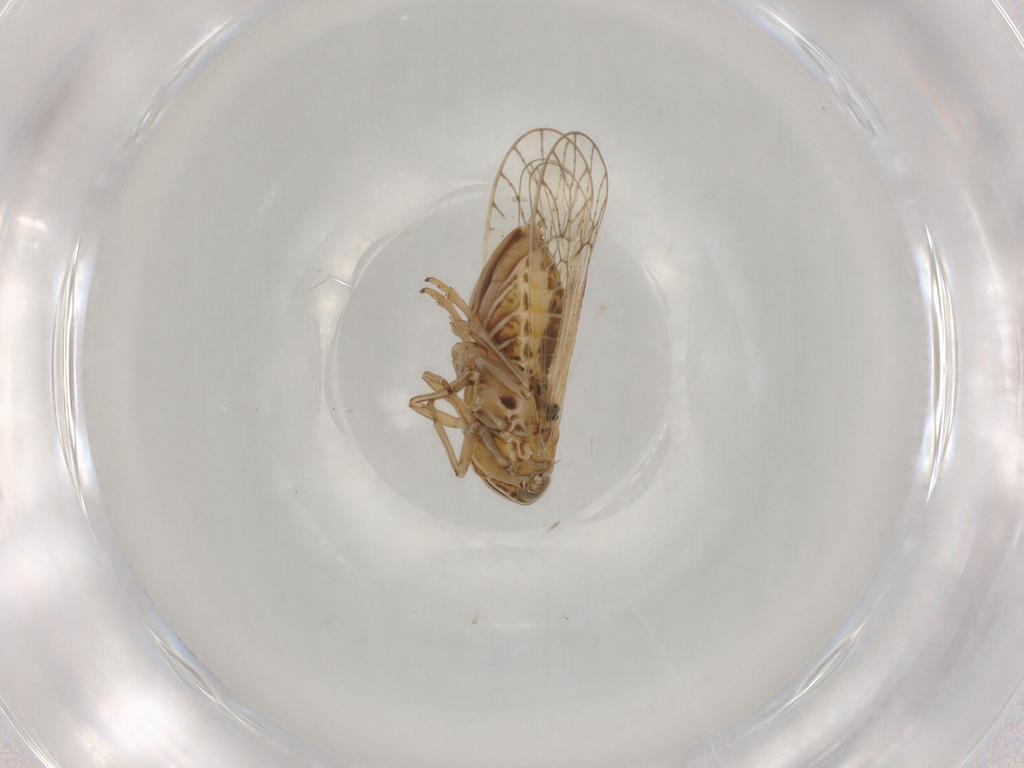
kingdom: Animalia
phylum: Arthropoda
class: Insecta
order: Hemiptera
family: Delphacidae
